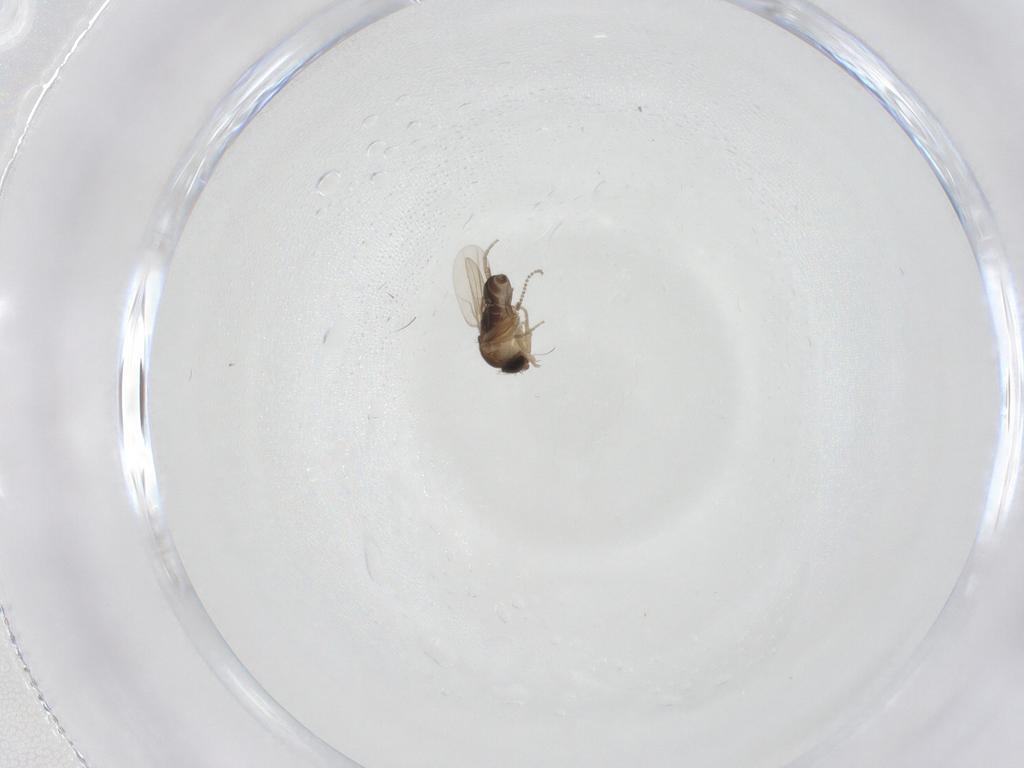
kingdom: Animalia
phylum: Arthropoda
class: Insecta
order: Diptera
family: Phoridae
